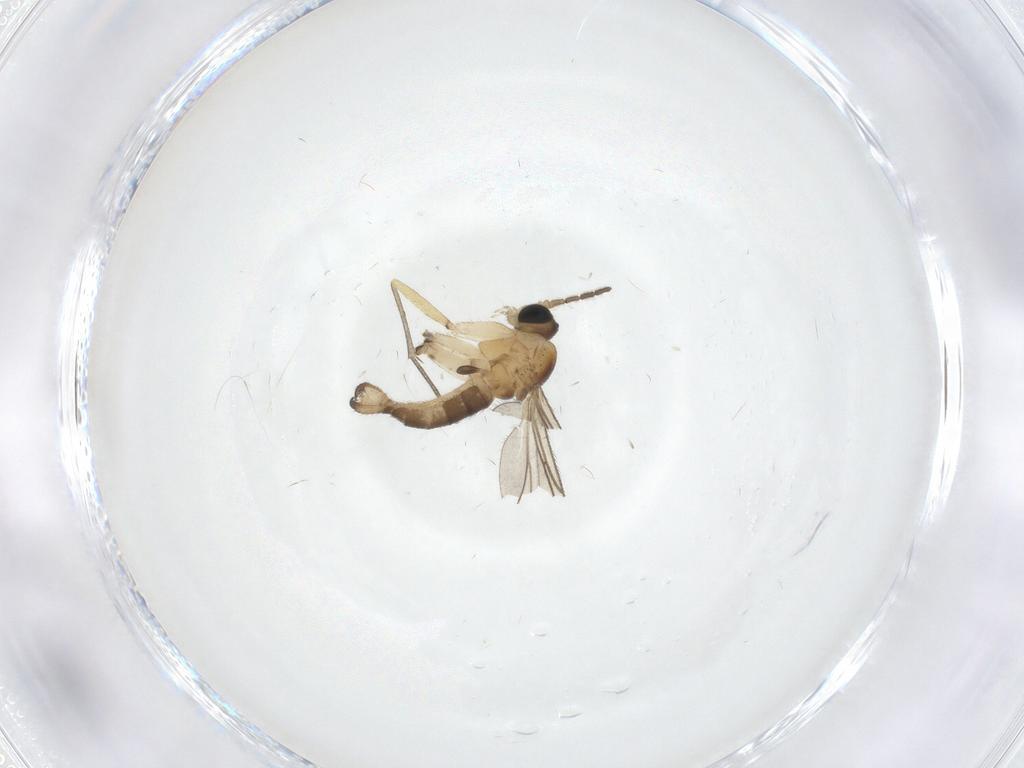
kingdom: Animalia
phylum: Arthropoda
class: Insecta
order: Diptera
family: Sciaridae
